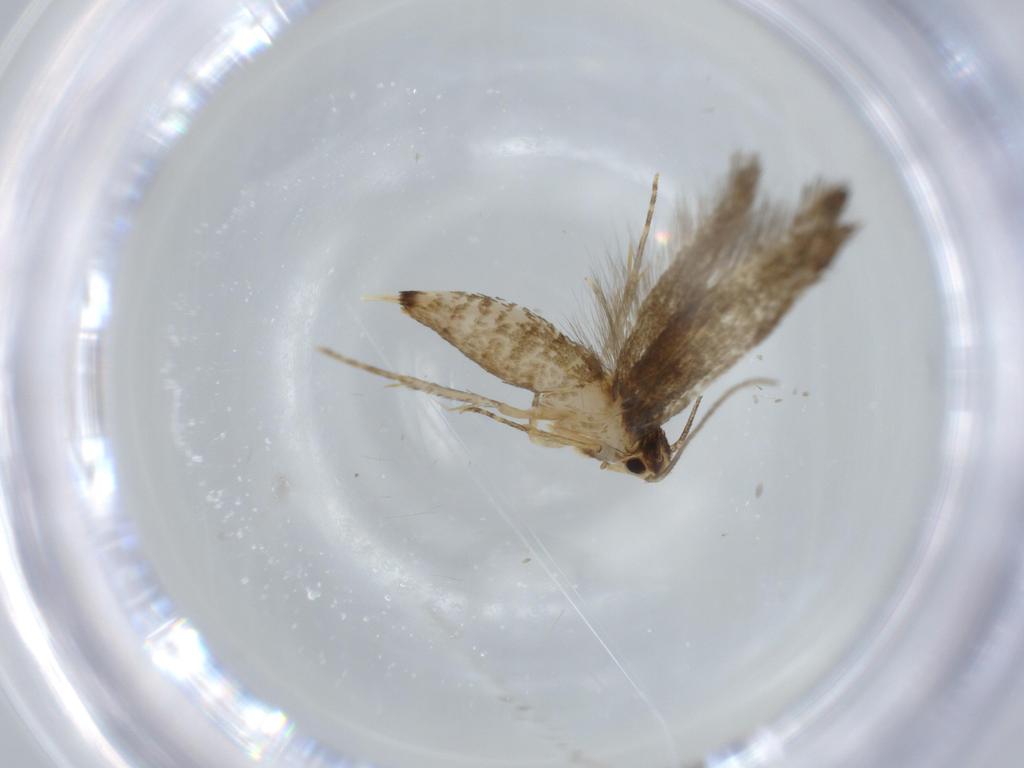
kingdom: Animalia
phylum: Arthropoda
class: Insecta
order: Lepidoptera
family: Tineidae
